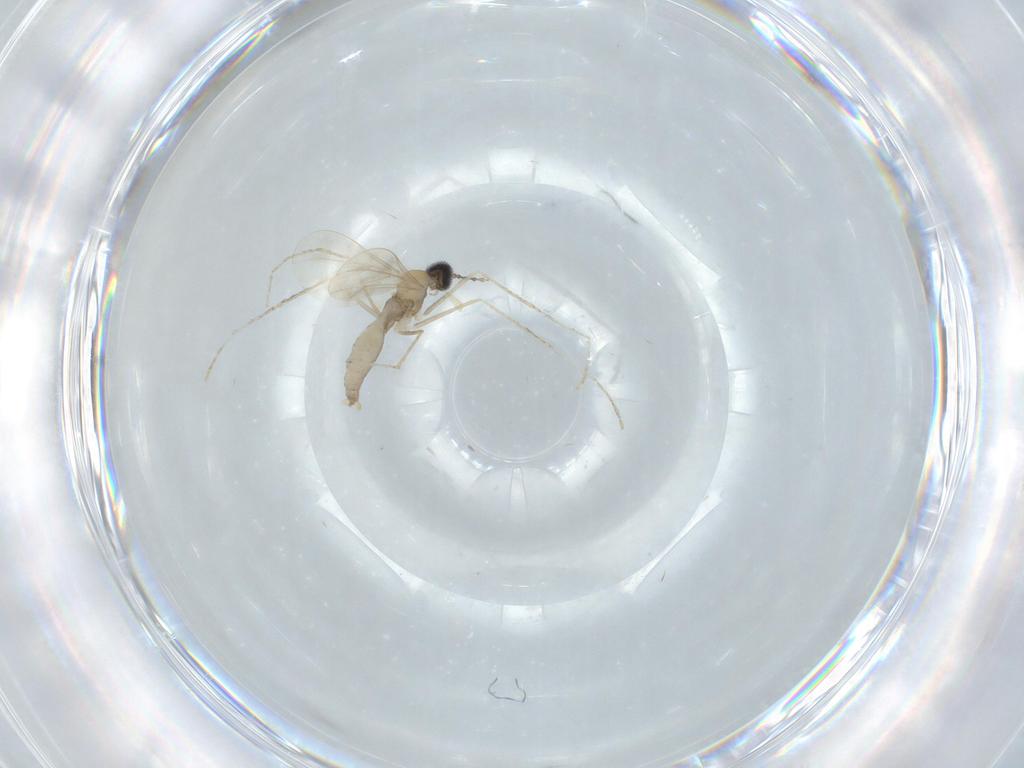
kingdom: Animalia
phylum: Arthropoda
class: Insecta
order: Diptera
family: Cecidomyiidae
